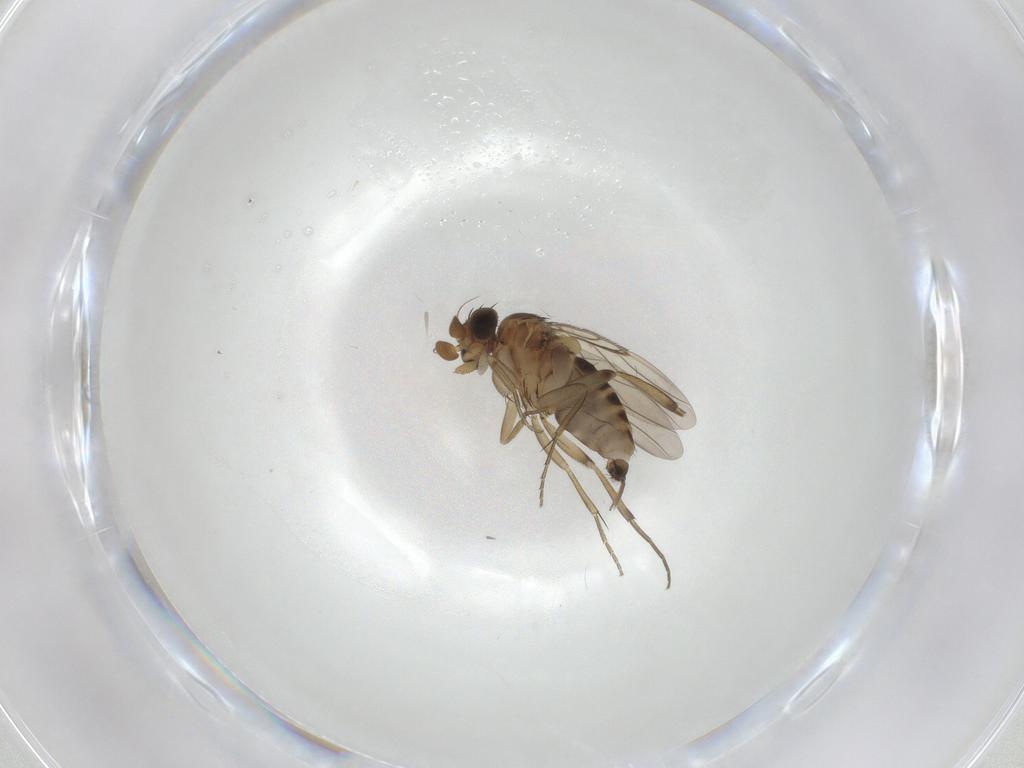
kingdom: Animalia
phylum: Arthropoda
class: Insecta
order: Diptera
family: Phoridae
